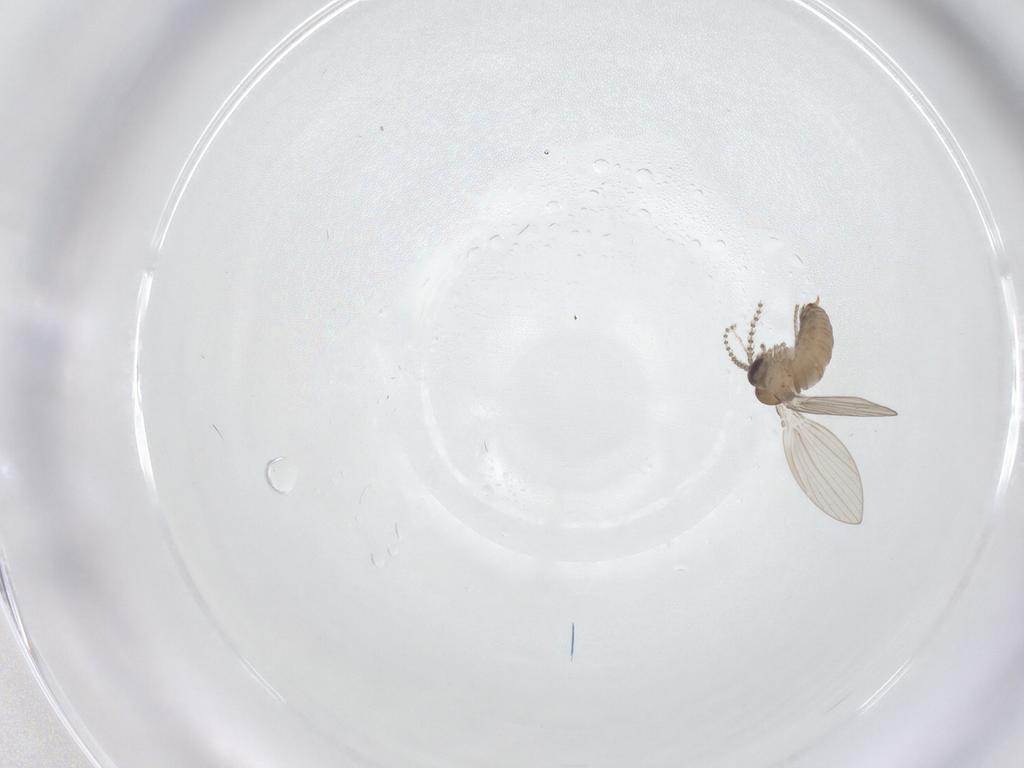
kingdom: Animalia
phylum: Arthropoda
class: Insecta
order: Diptera
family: Psychodidae
